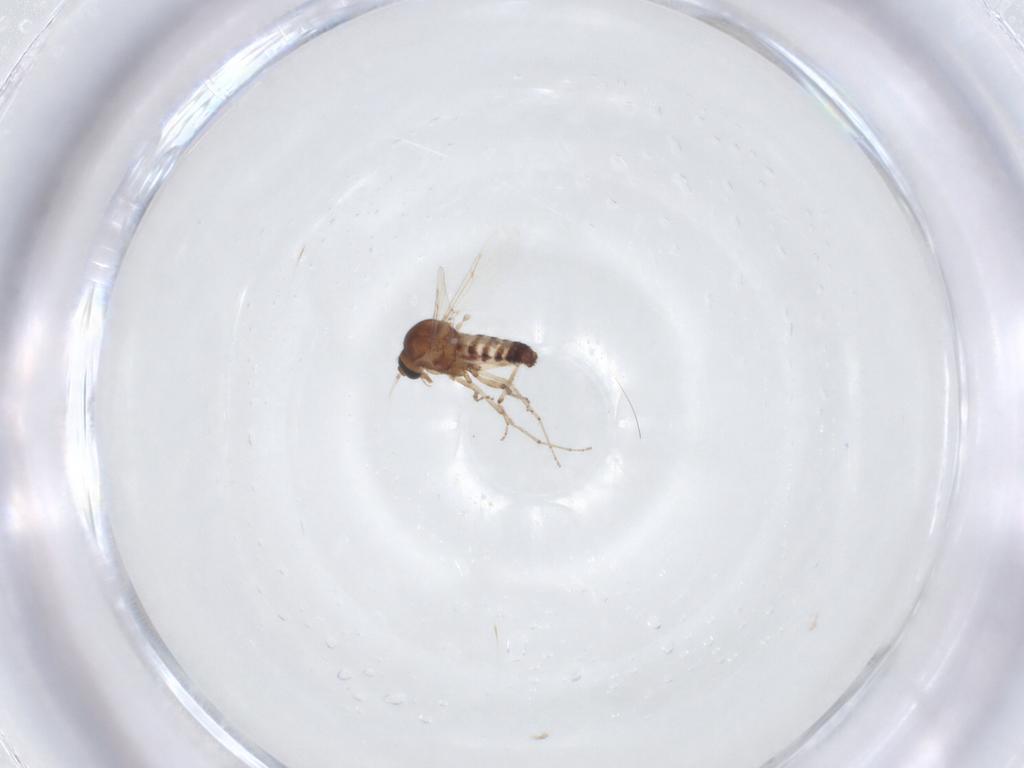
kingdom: Animalia
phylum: Arthropoda
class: Insecta
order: Diptera
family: Ceratopogonidae
